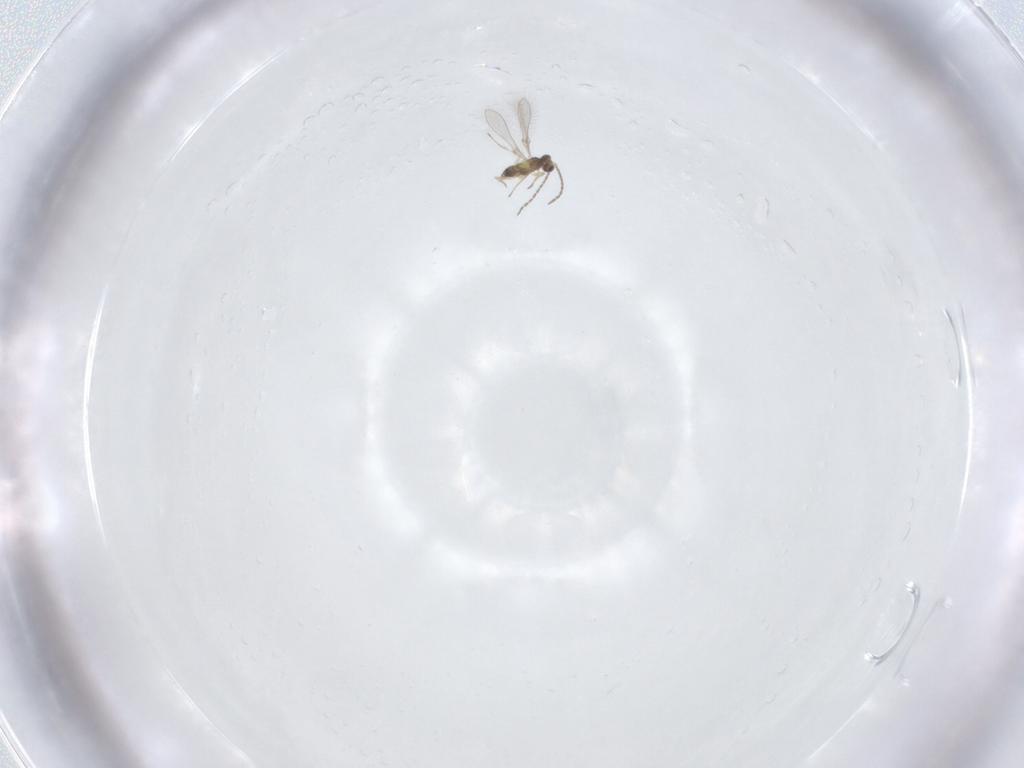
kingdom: Animalia
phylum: Arthropoda
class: Insecta
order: Hymenoptera
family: Mymaridae
